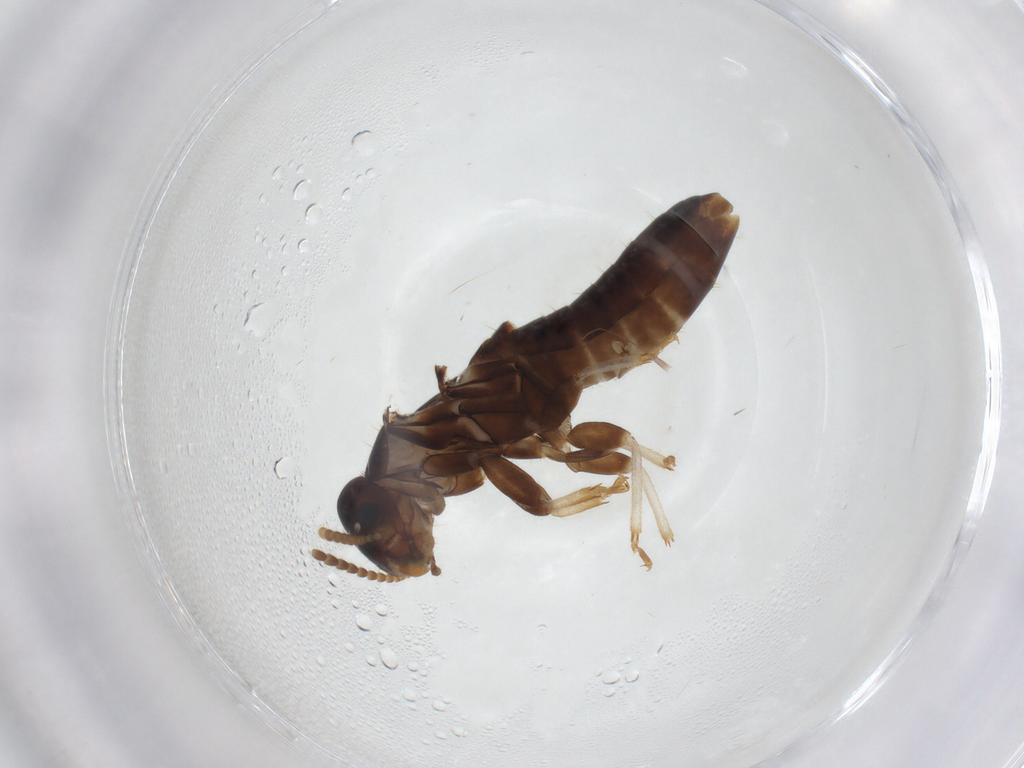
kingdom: Animalia
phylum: Arthropoda
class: Insecta
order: Blattodea
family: Kalotermitidae
